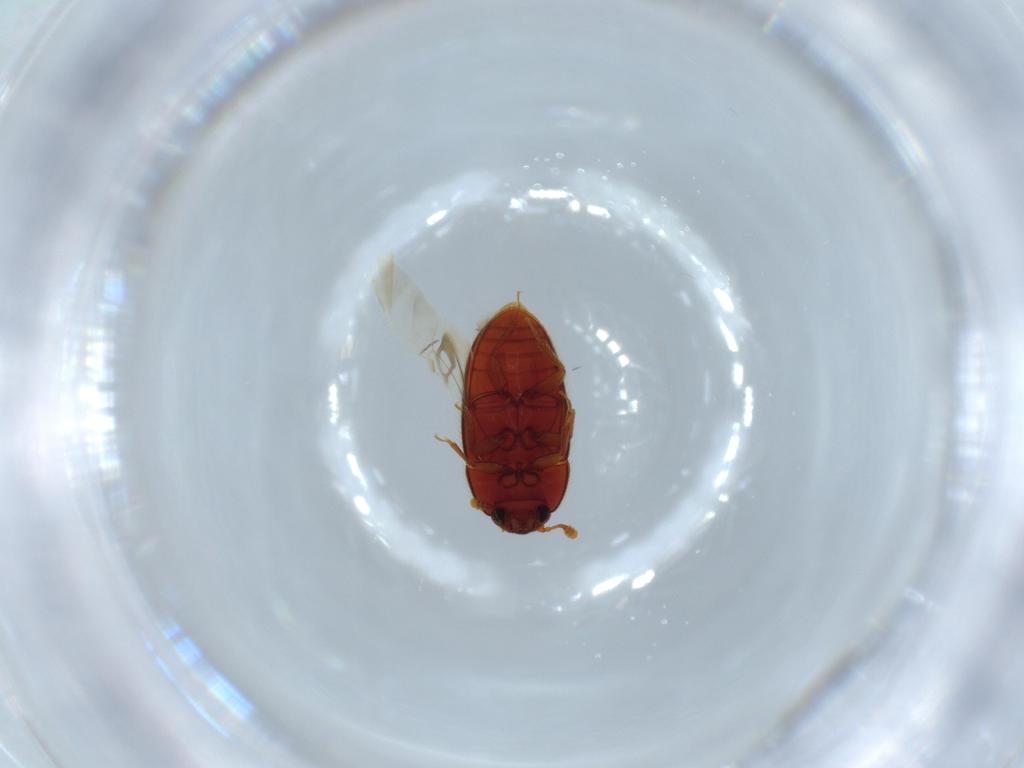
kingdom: Animalia
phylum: Arthropoda
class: Insecta
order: Coleoptera
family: Biphyllidae
